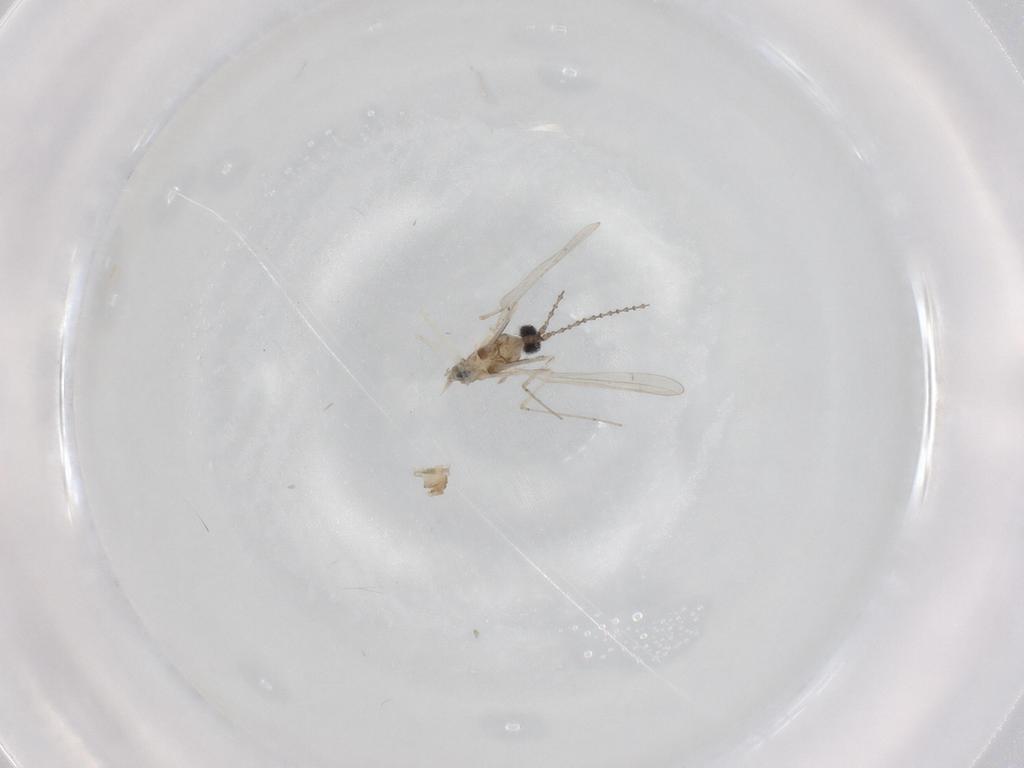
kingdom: Animalia
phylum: Arthropoda
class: Insecta
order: Diptera
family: Cecidomyiidae
